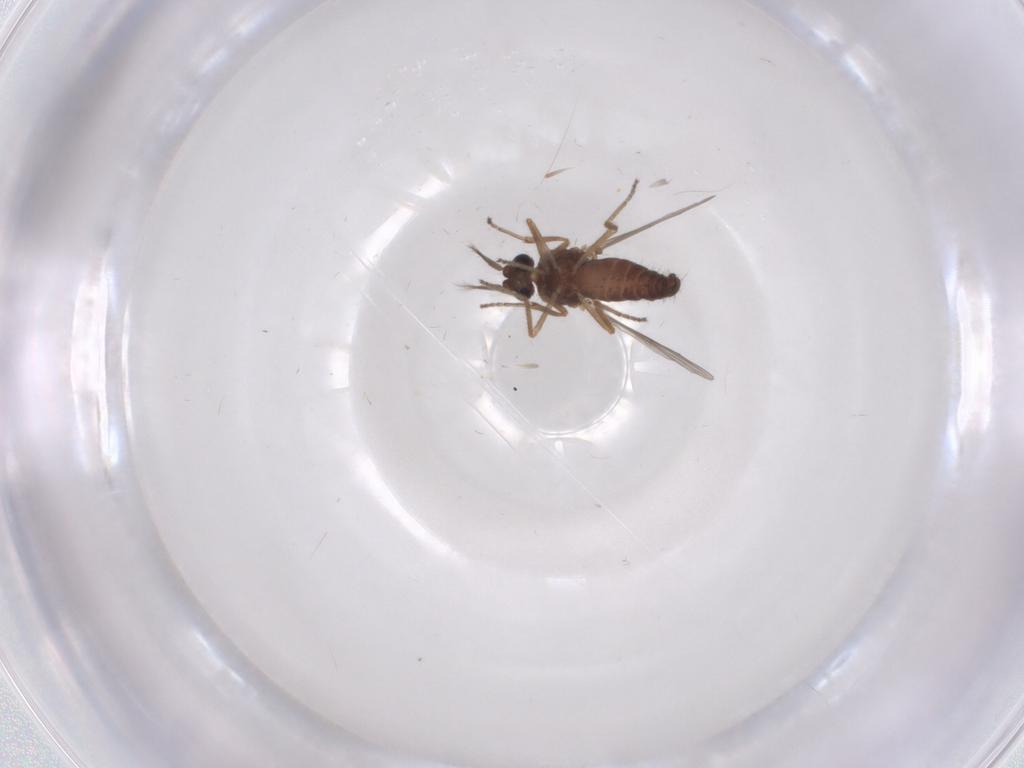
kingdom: Animalia
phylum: Arthropoda
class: Insecta
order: Diptera
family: Ceratopogonidae
